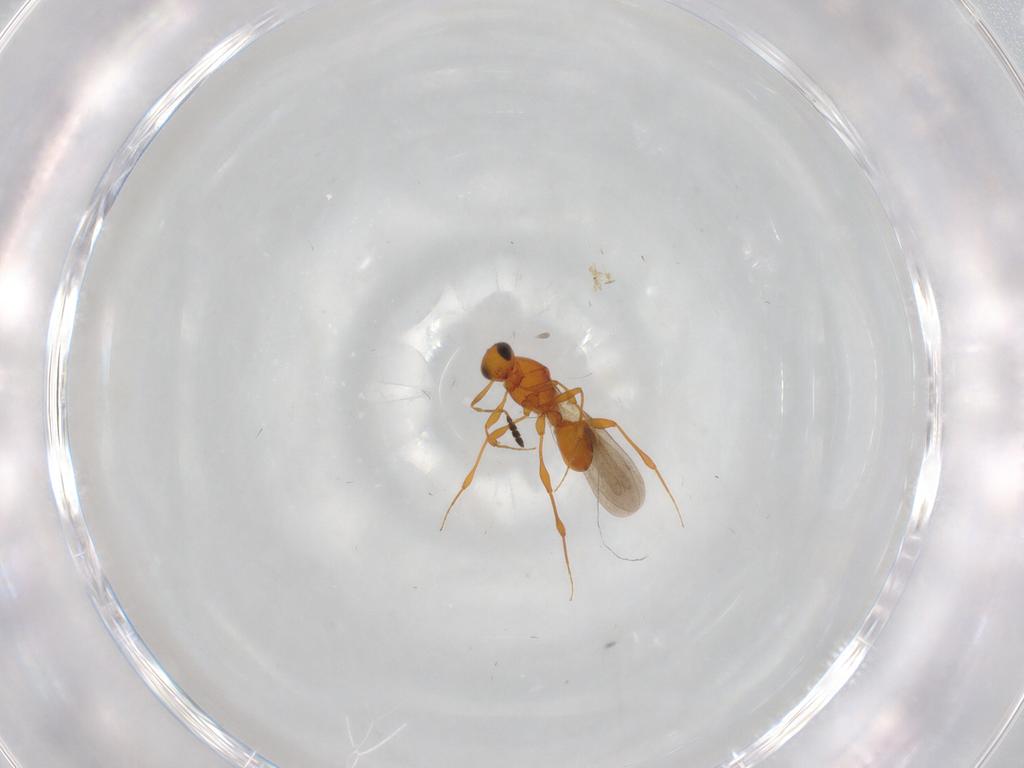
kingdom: Animalia
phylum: Arthropoda
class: Insecta
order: Hymenoptera
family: Platygastridae
